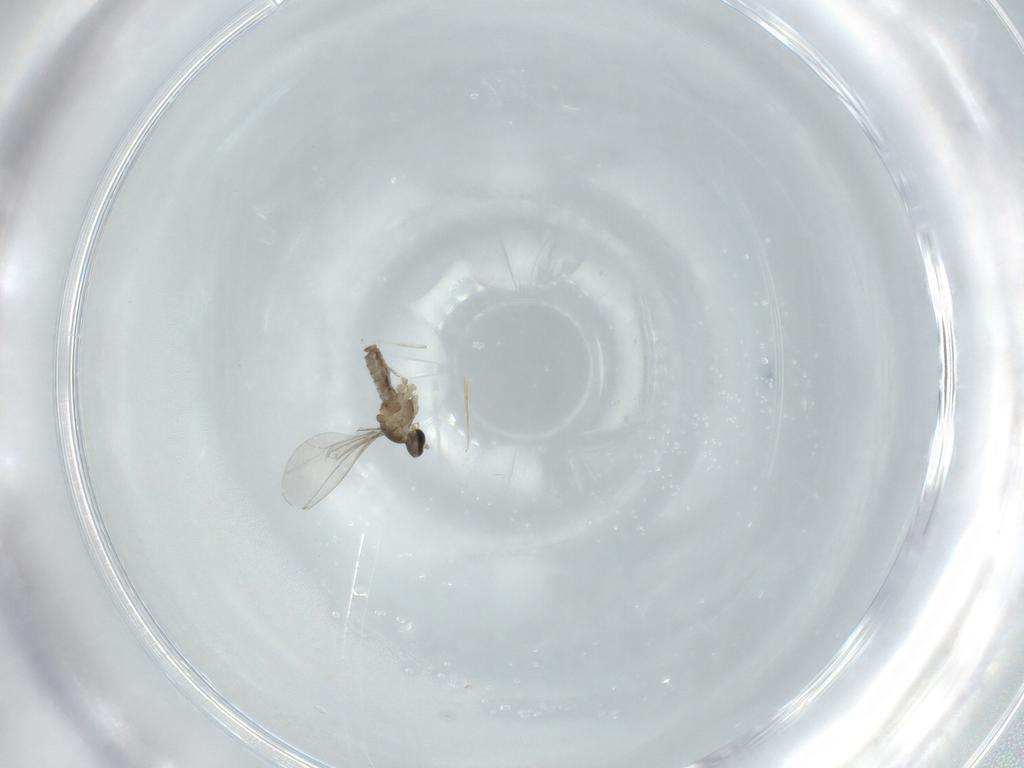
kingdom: Animalia
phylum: Arthropoda
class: Insecta
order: Diptera
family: Cecidomyiidae
